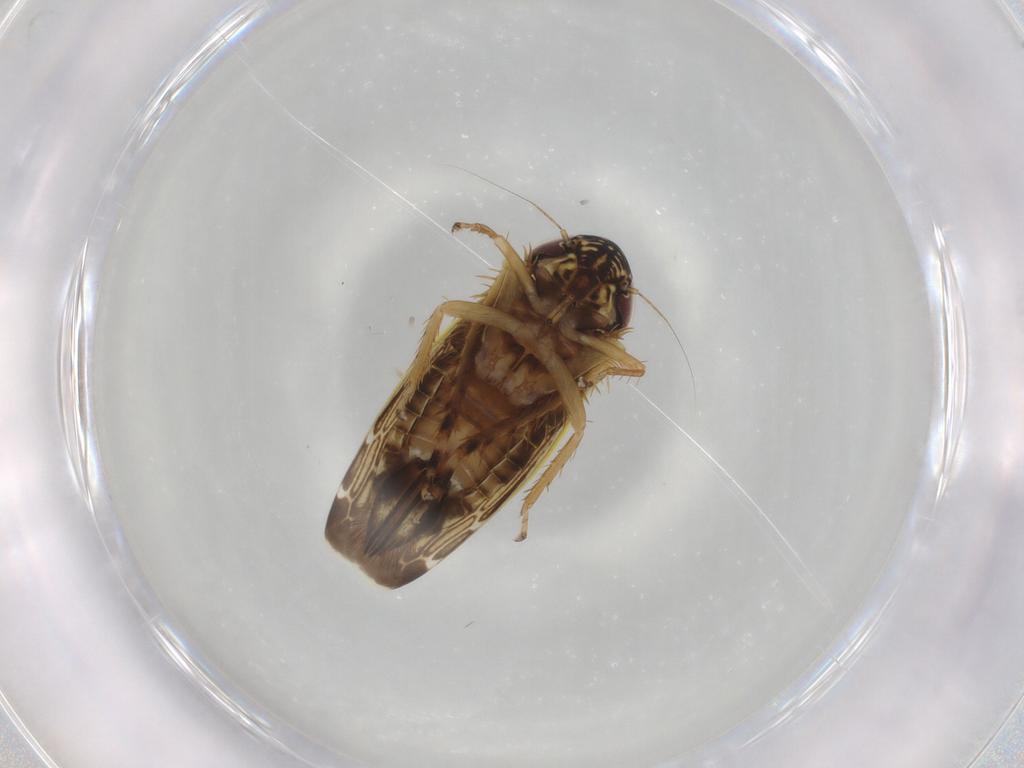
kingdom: Animalia
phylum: Arthropoda
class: Insecta
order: Hemiptera
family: Cicadellidae
